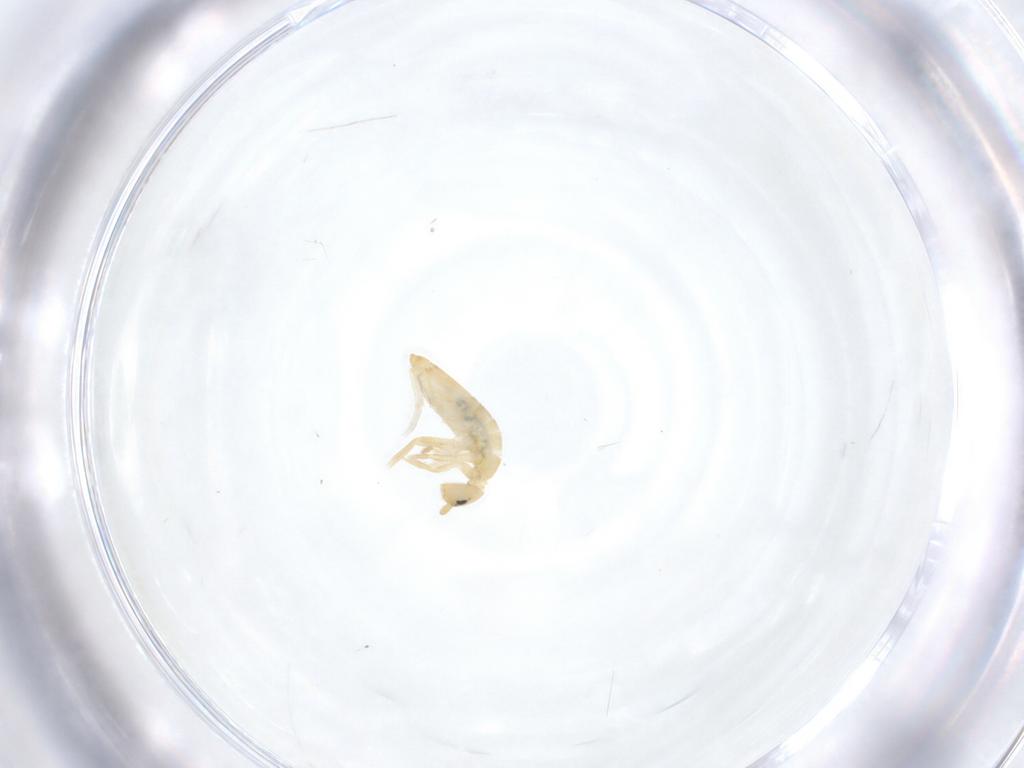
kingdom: Animalia
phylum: Arthropoda
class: Collembola
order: Entomobryomorpha
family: Entomobryidae
